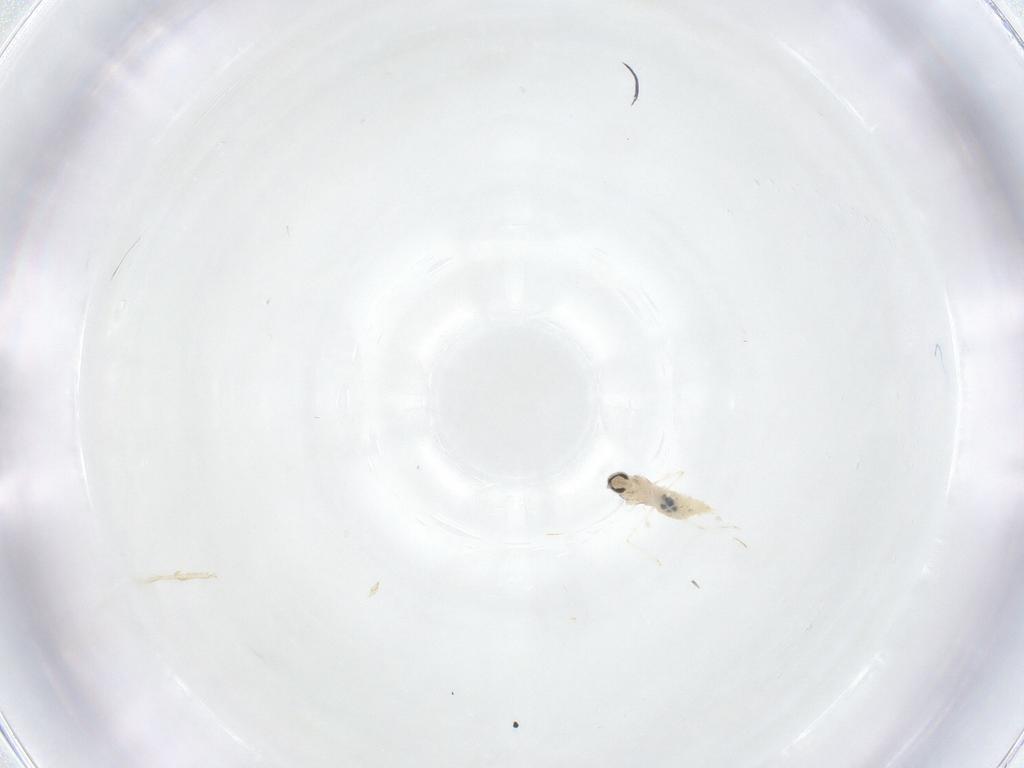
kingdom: Animalia
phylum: Arthropoda
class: Insecta
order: Diptera
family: Cecidomyiidae
